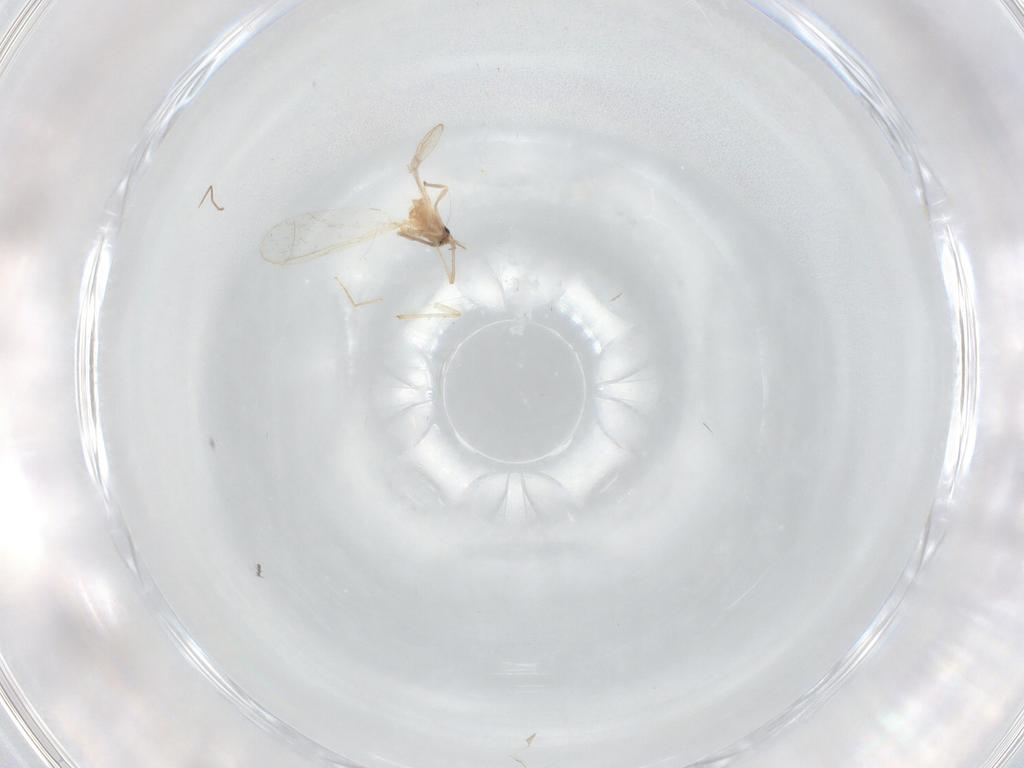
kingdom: Animalia
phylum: Arthropoda
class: Insecta
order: Diptera
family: Chironomidae
